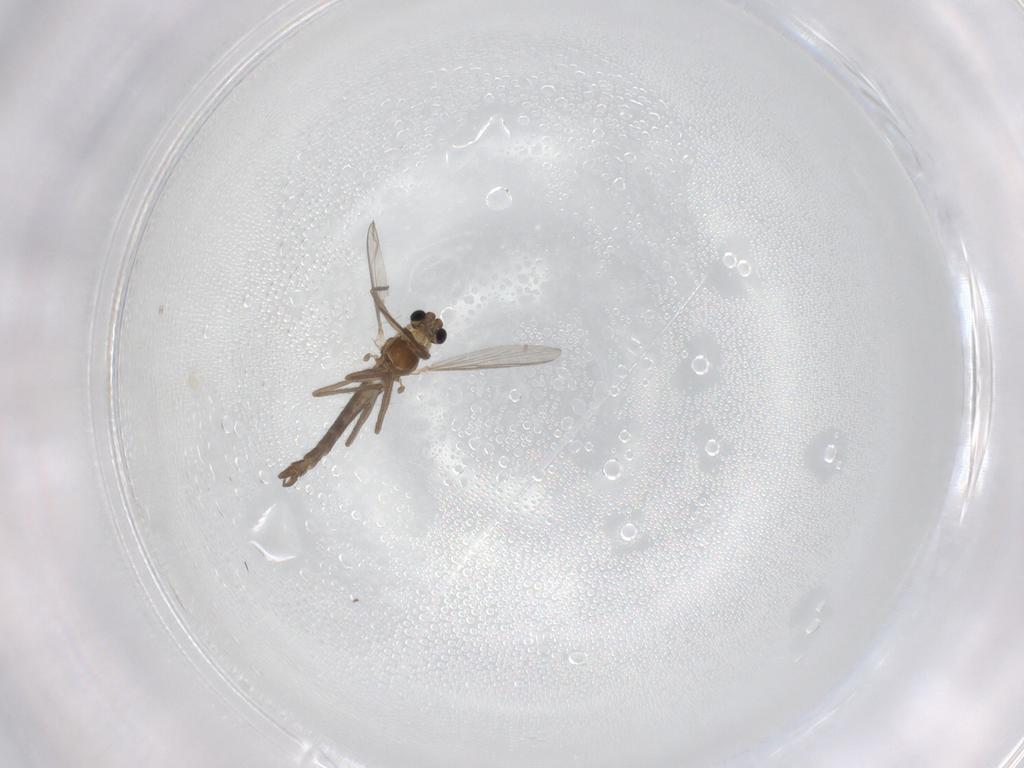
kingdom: Animalia
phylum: Arthropoda
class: Insecta
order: Diptera
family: Chironomidae
